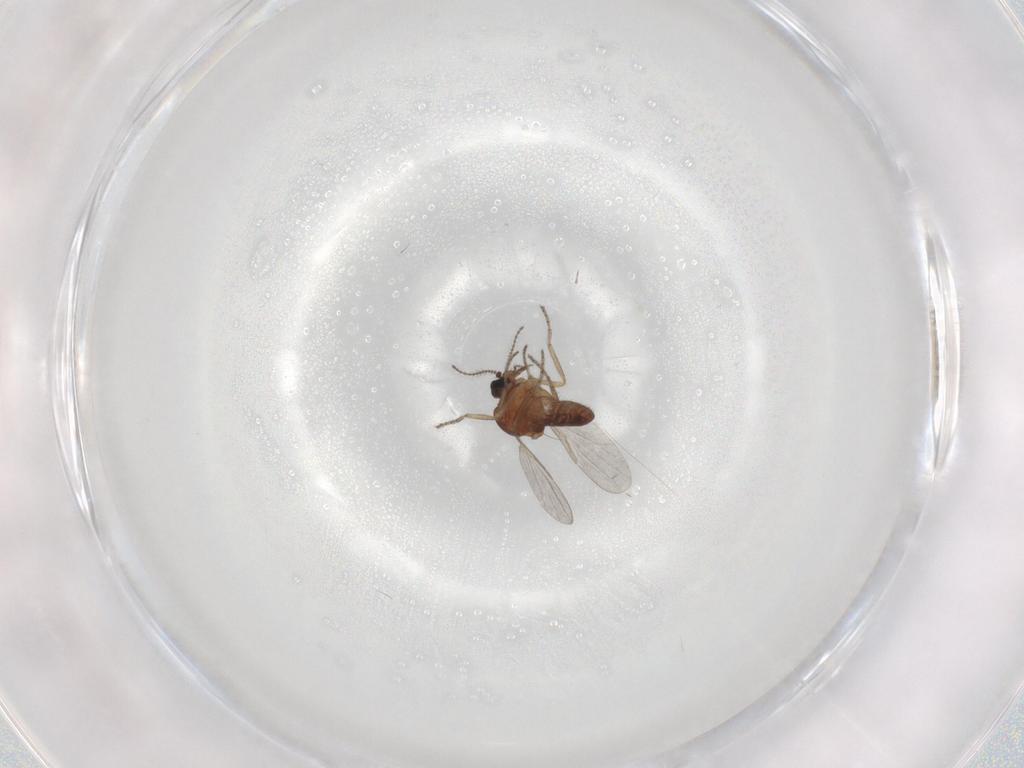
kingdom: Animalia
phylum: Arthropoda
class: Insecta
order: Diptera
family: Ceratopogonidae
